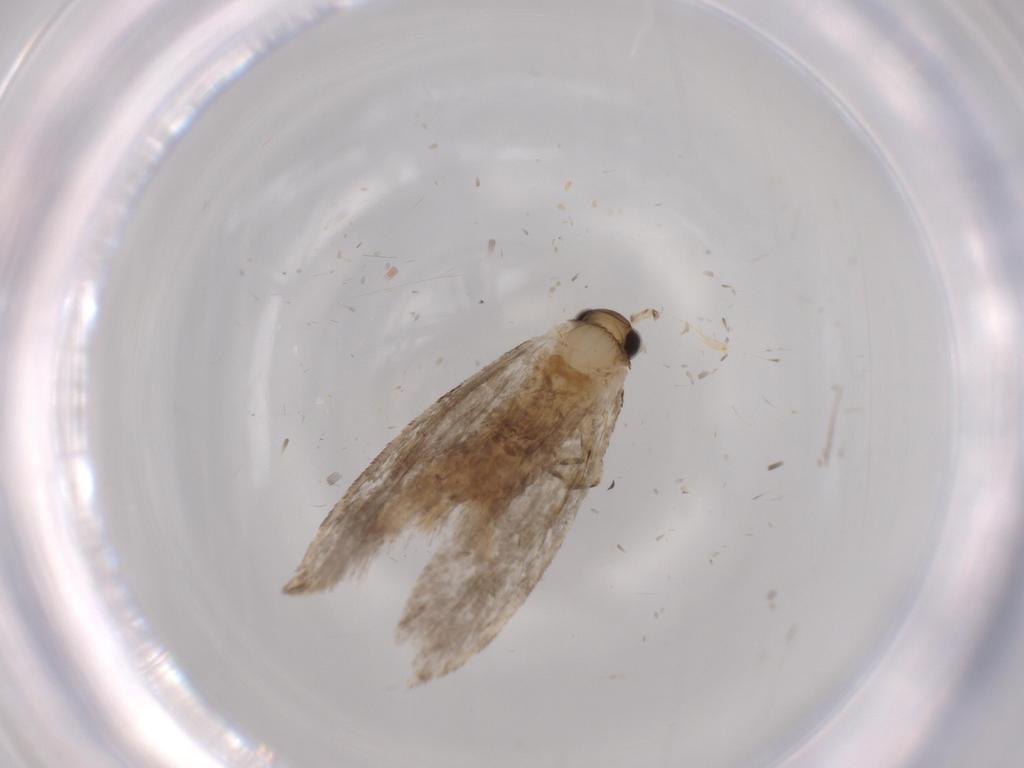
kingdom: Animalia
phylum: Arthropoda
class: Insecta
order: Lepidoptera
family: Tineidae
